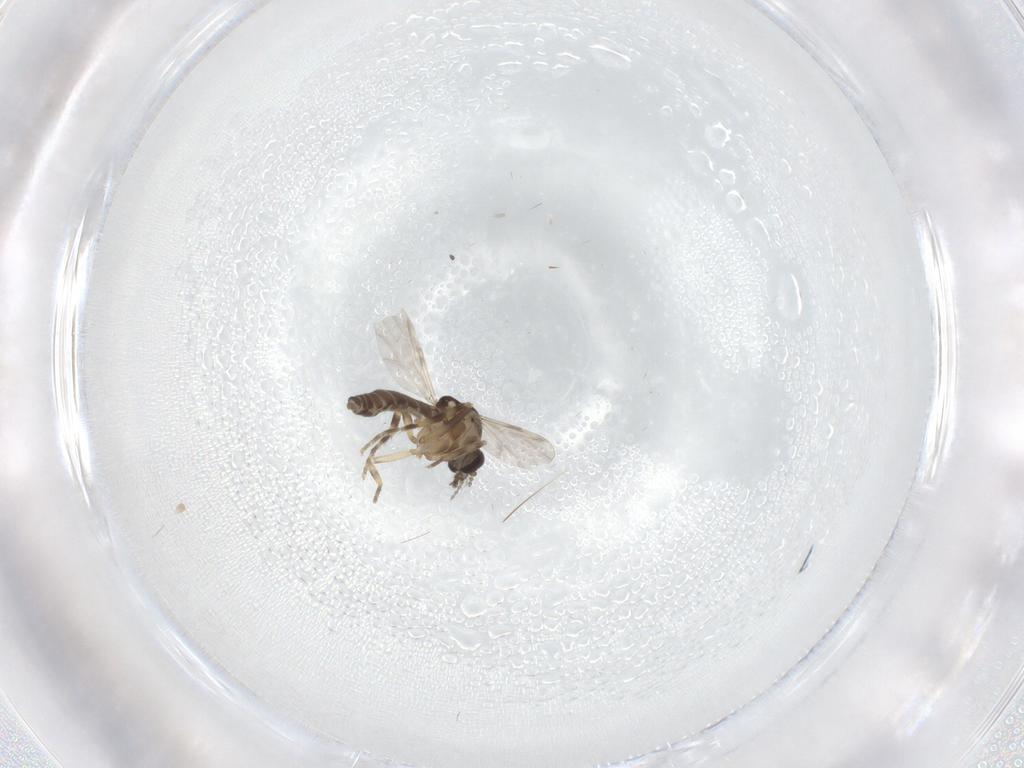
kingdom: Animalia
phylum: Arthropoda
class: Insecta
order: Diptera
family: Ceratopogonidae
